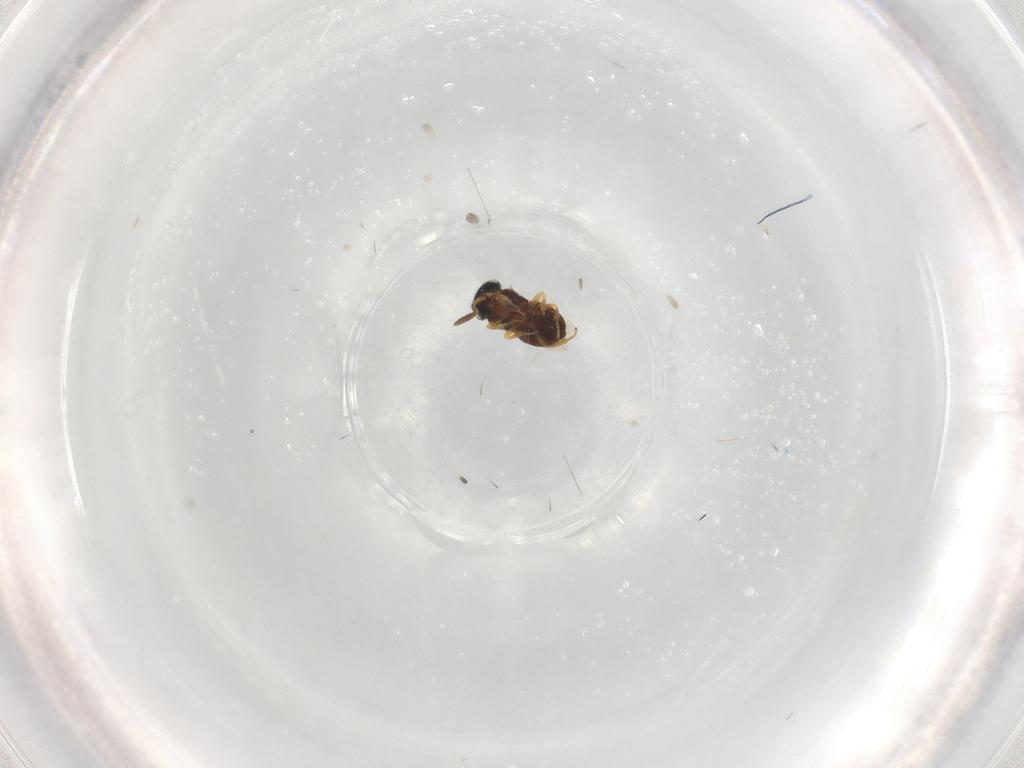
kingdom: Animalia
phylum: Arthropoda
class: Insecta
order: Hymenoptera
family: Scelionidae
